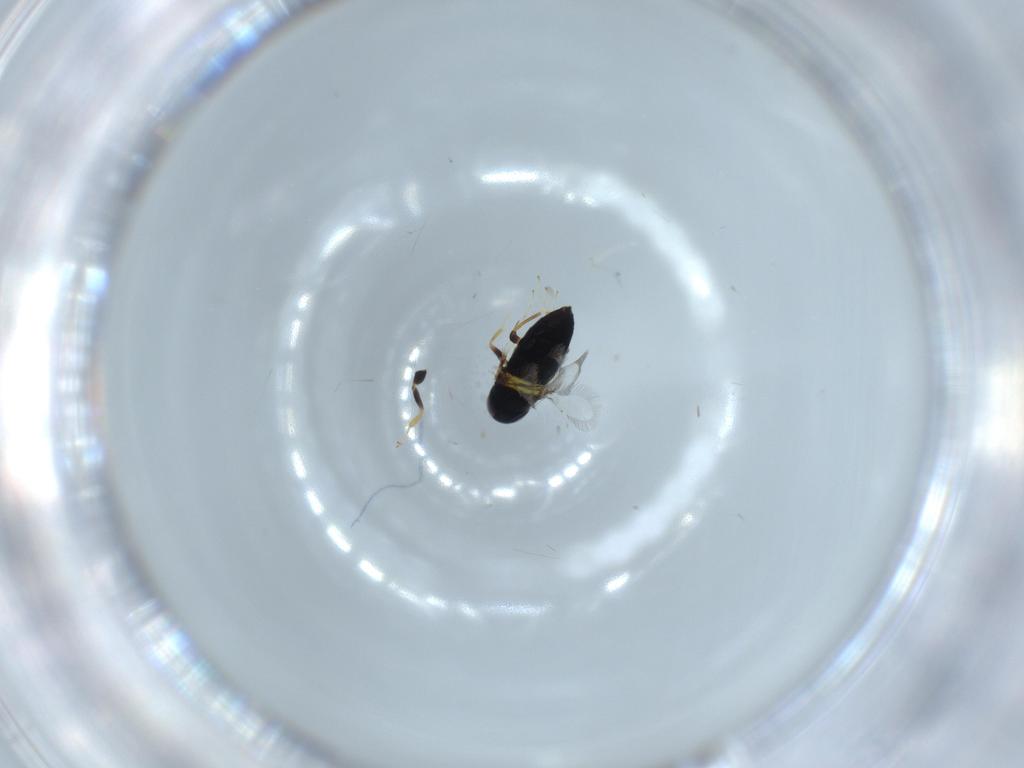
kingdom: Animalia
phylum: Arthropoda
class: Insecta
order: Hymenoptera
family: Signiphoridae
